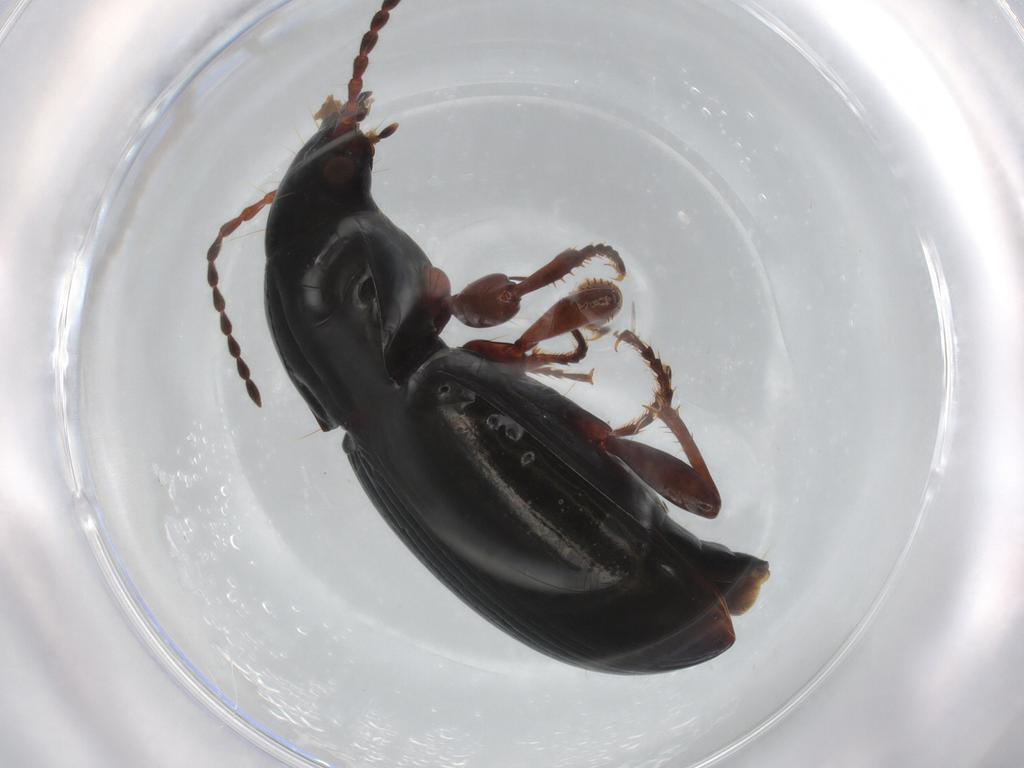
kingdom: Animalia
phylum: Arthropoda
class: Insecta
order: Coleoptera
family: Carabidae
